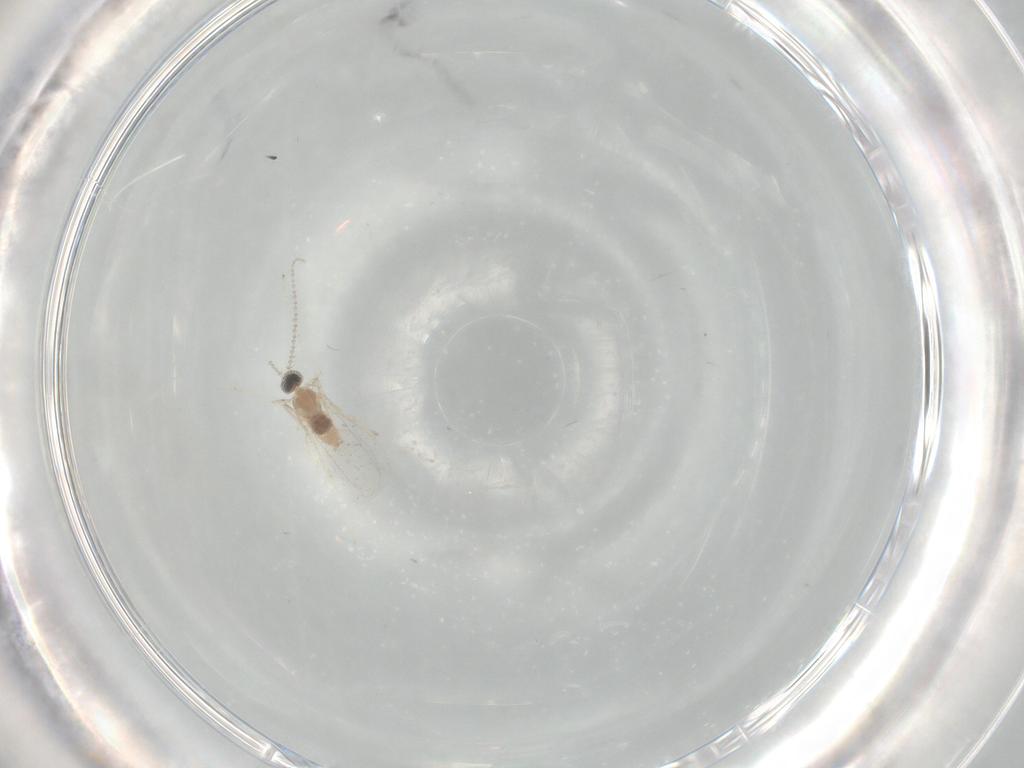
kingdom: Animalia
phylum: Arthropoda
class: Insecta
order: Diptera
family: Cecidomyiidae
